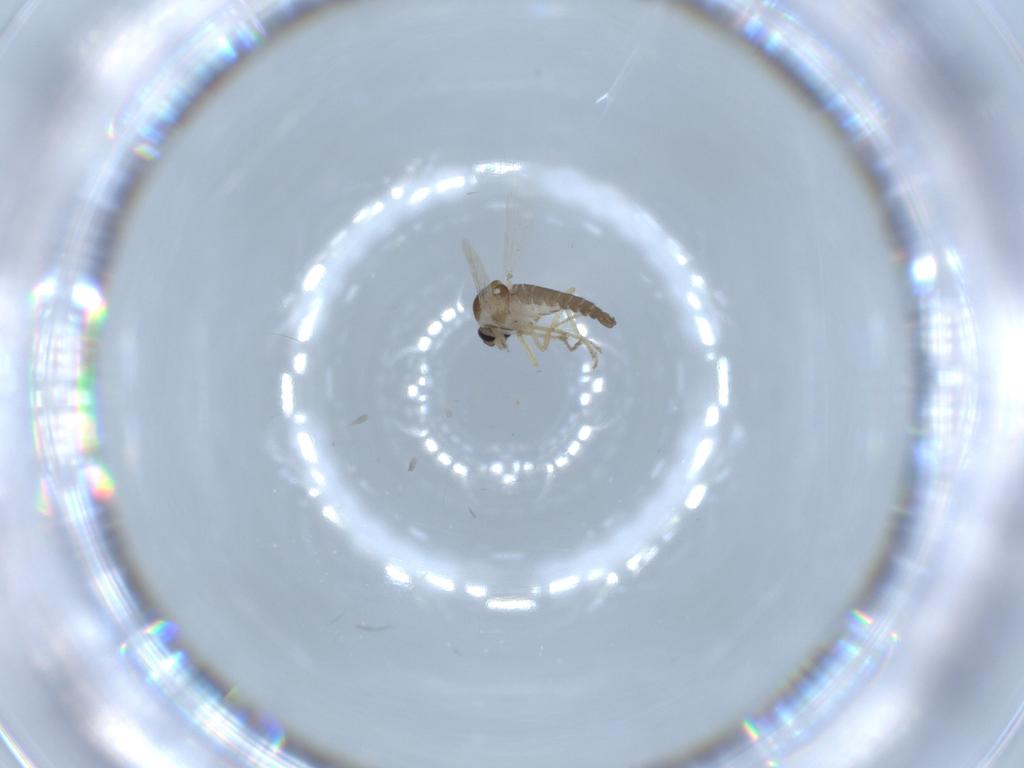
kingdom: Animalia
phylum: Arthropoda
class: Insecta
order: Diptera
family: Ceratopogonidae
